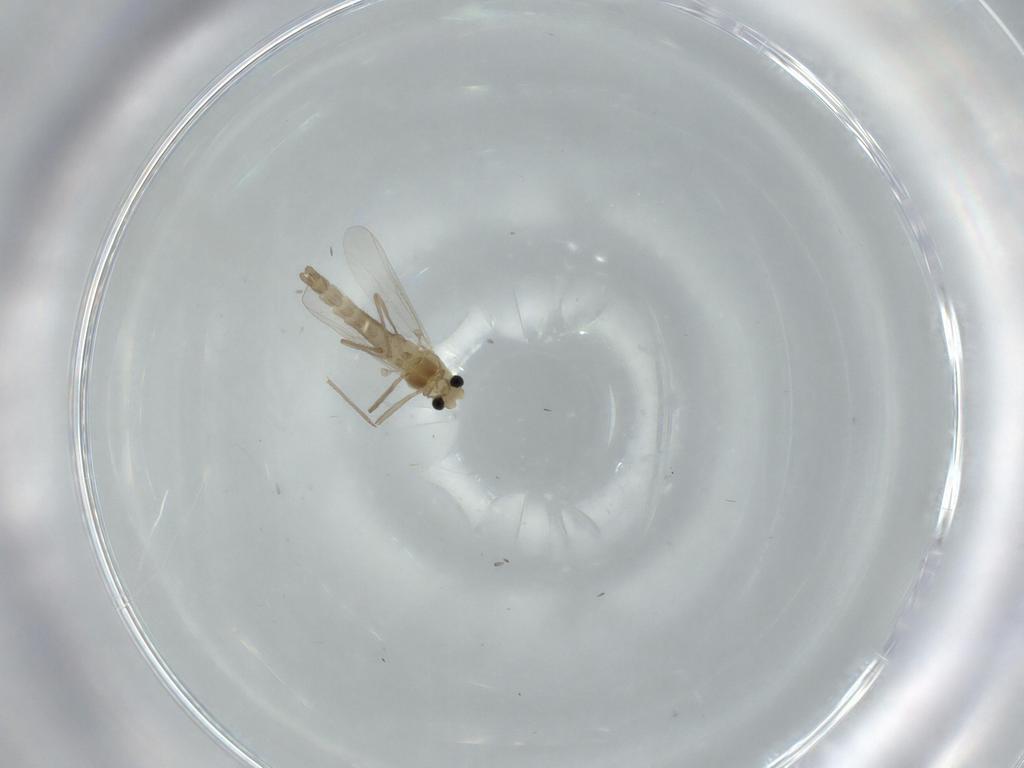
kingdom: Animalia
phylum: Arthropoda
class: Insecta
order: Diptera
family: Chironomidae
